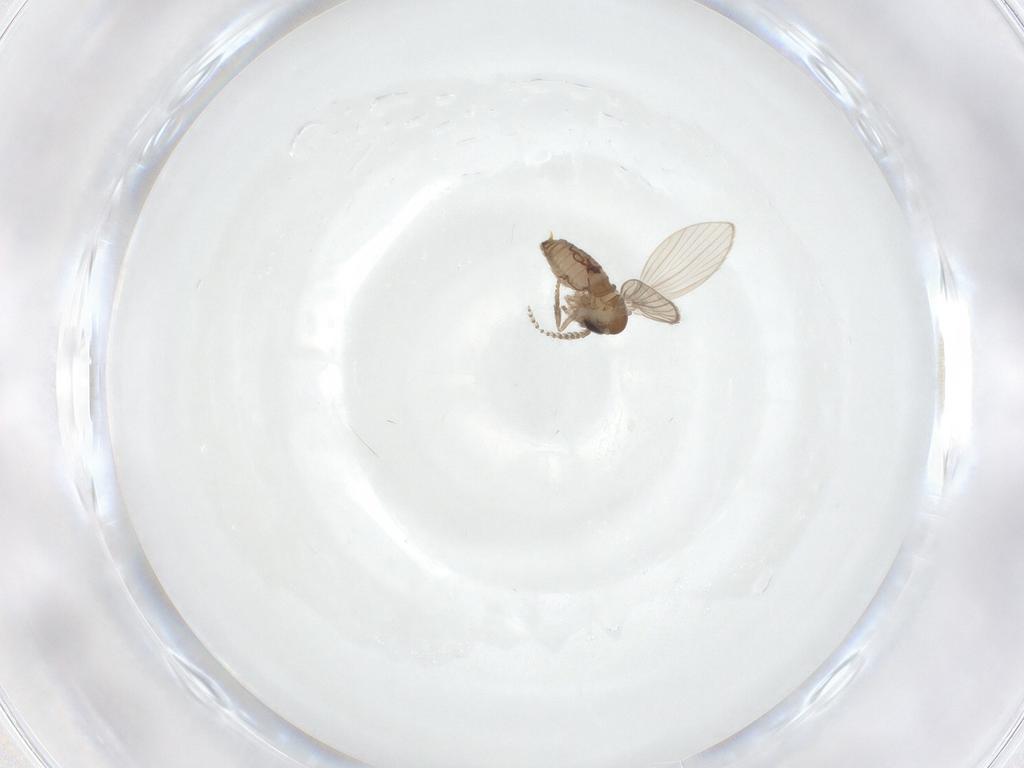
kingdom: Animalia
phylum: Arthropoda
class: Insecta
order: Diptera
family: Psychodidae
